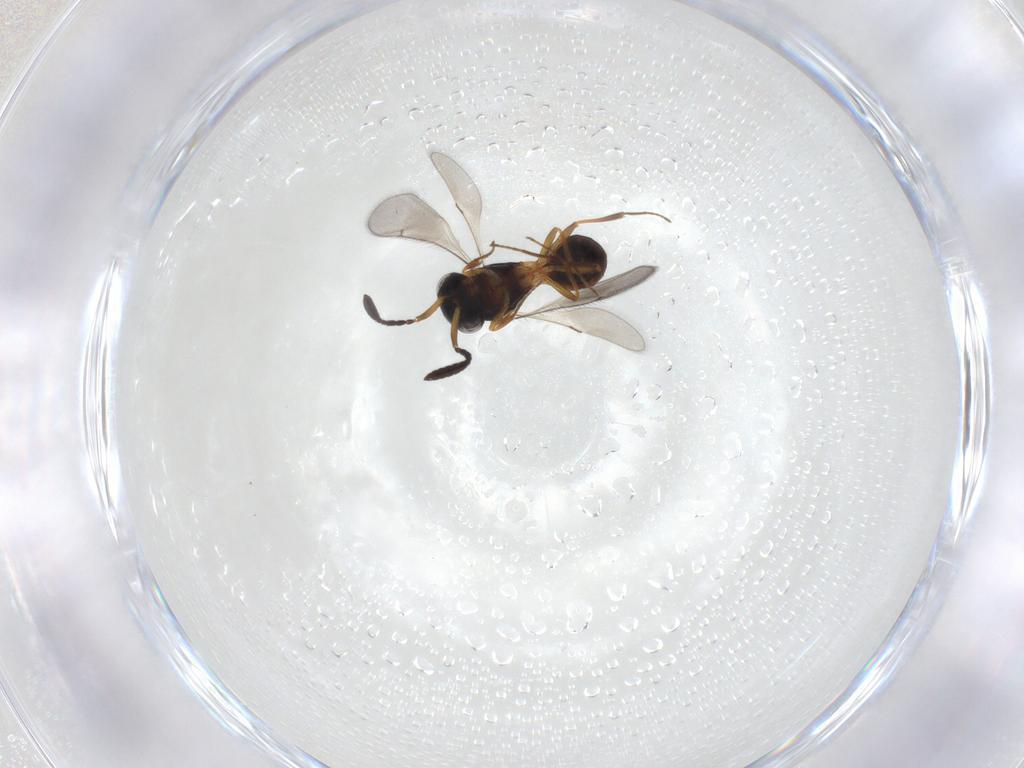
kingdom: Animalia
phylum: Arthropoda
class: Insecta
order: Hymenoptera
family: Scelionidae
